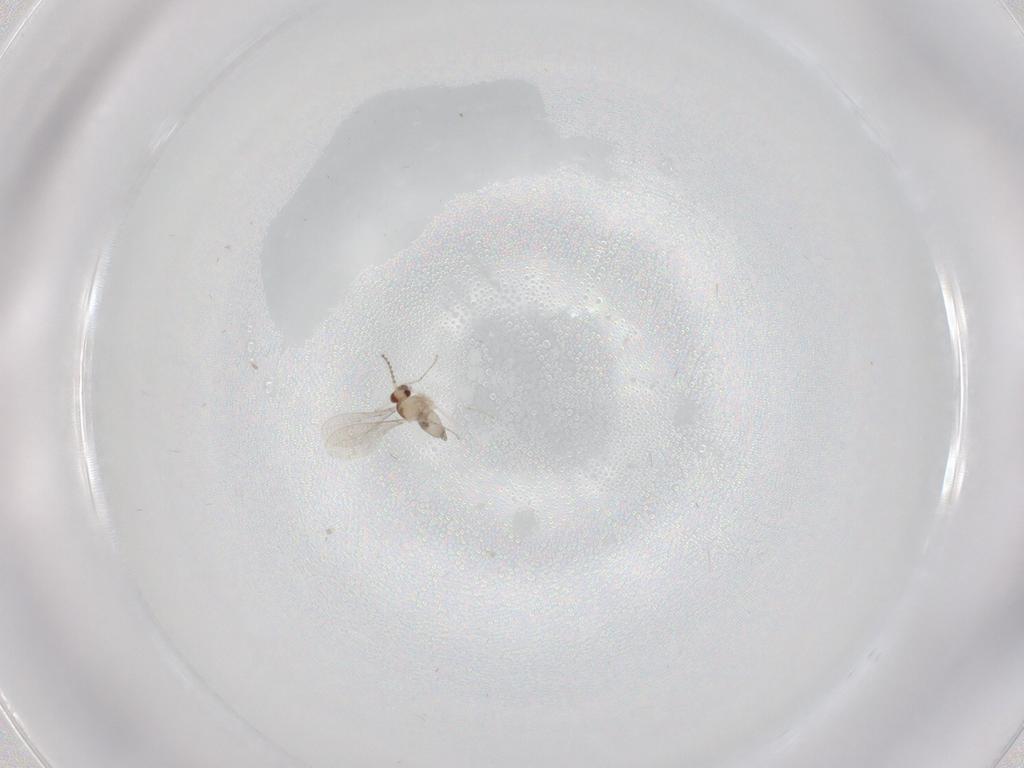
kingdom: Animalia
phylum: Arthropoda
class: Insecta
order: Diptera
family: Cecidomyiidae
